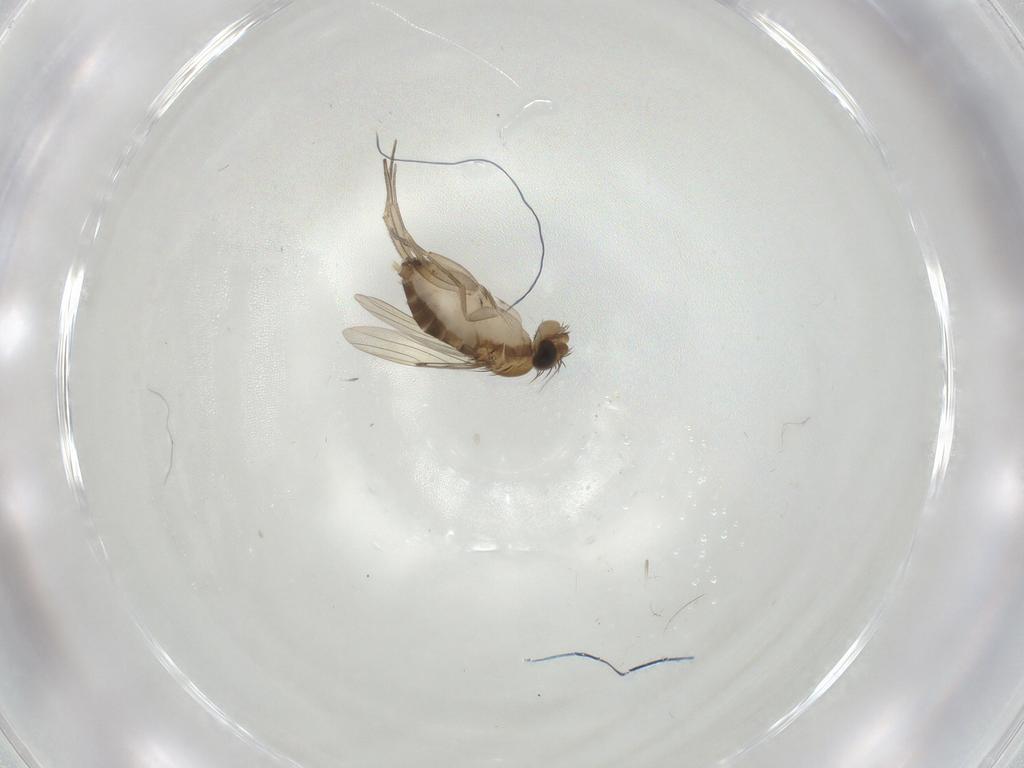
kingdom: Animalia
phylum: Arthropoda
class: Insecta
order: Diptera
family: Phoridae
